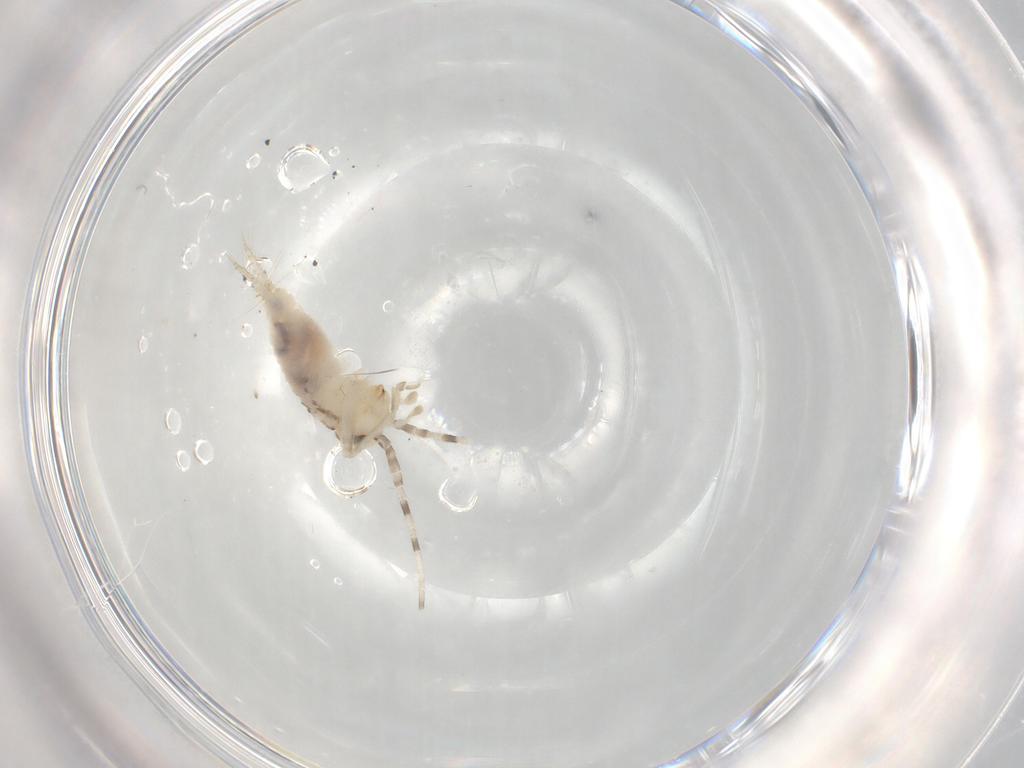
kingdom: Animalia
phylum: Arthropoda
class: Insecta
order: Orthoptera
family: Trigonidiidae
